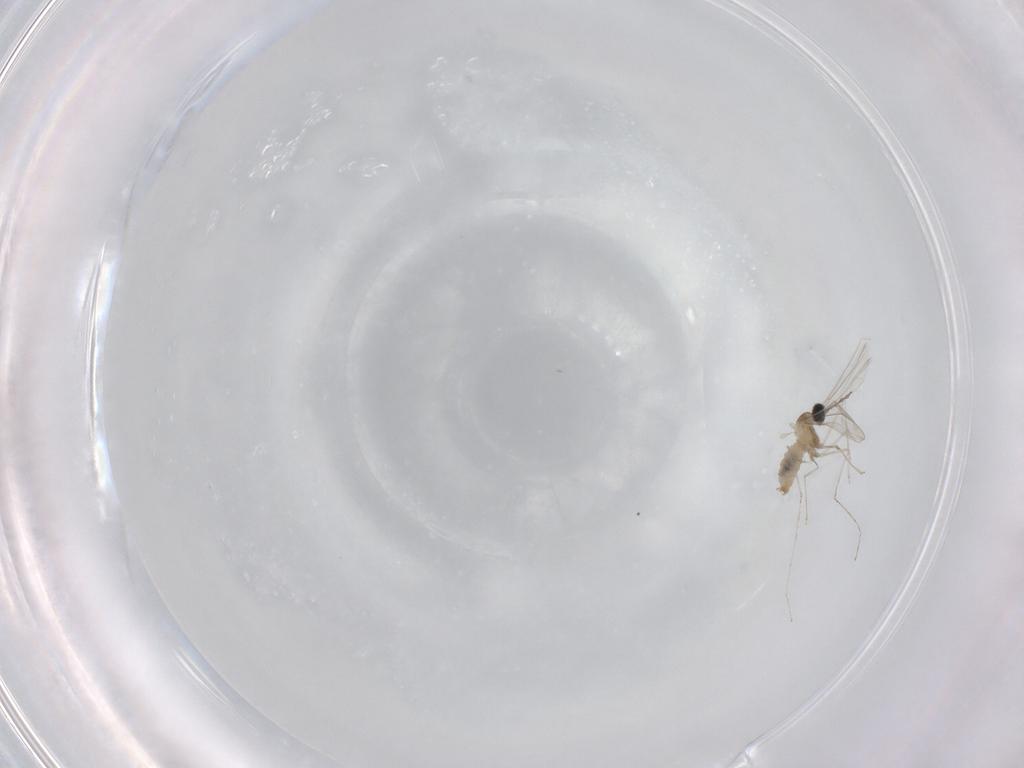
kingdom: Animalia
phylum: Arthropoda
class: Insecta
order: Diptera
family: Cecidomyiidae
